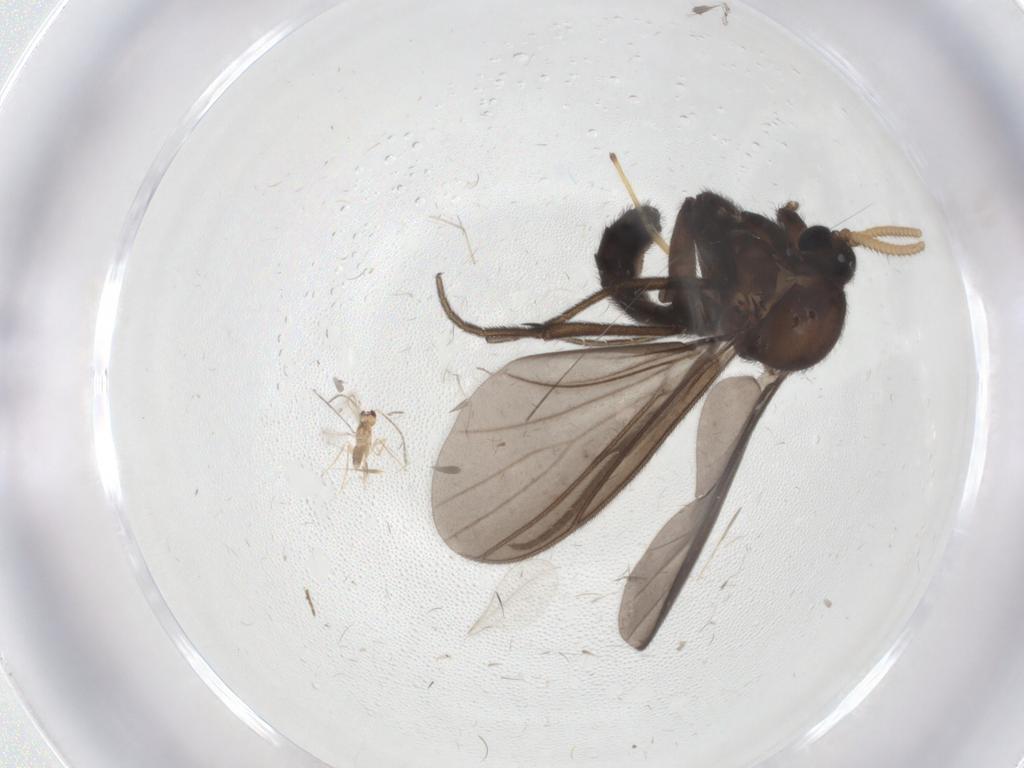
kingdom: Animalia
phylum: Arthropoda
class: Insecta
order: Diptera
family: Phoridae
